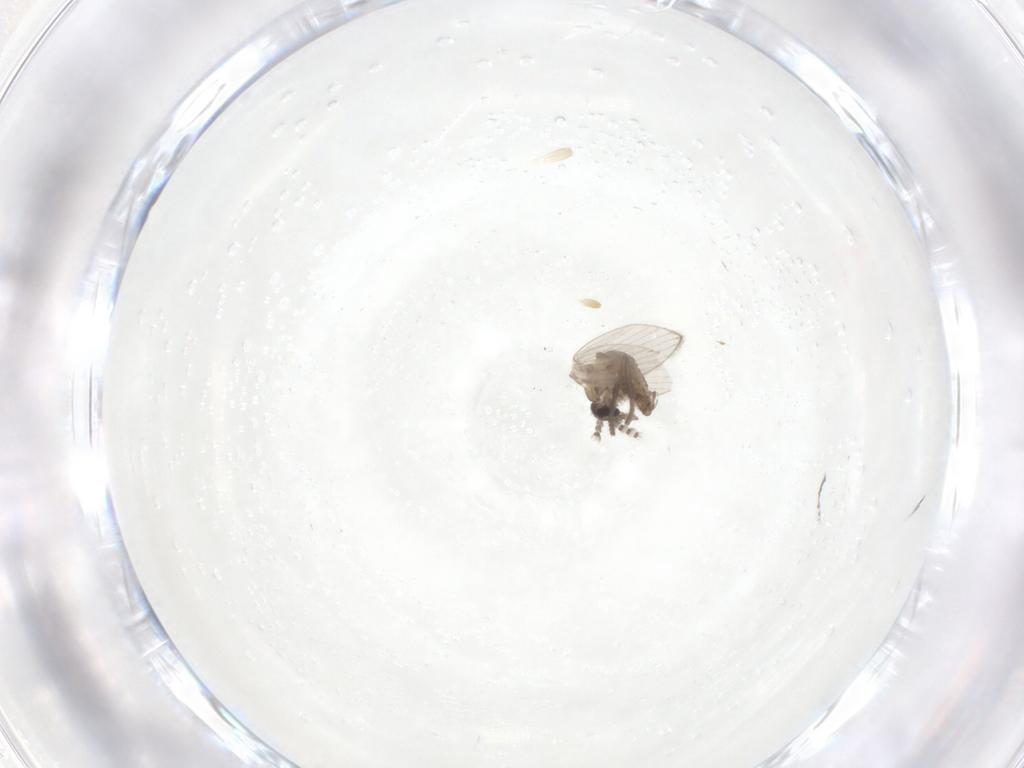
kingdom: Animalia
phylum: Arthropoda
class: Insecta
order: Diptera
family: Psychodidae
